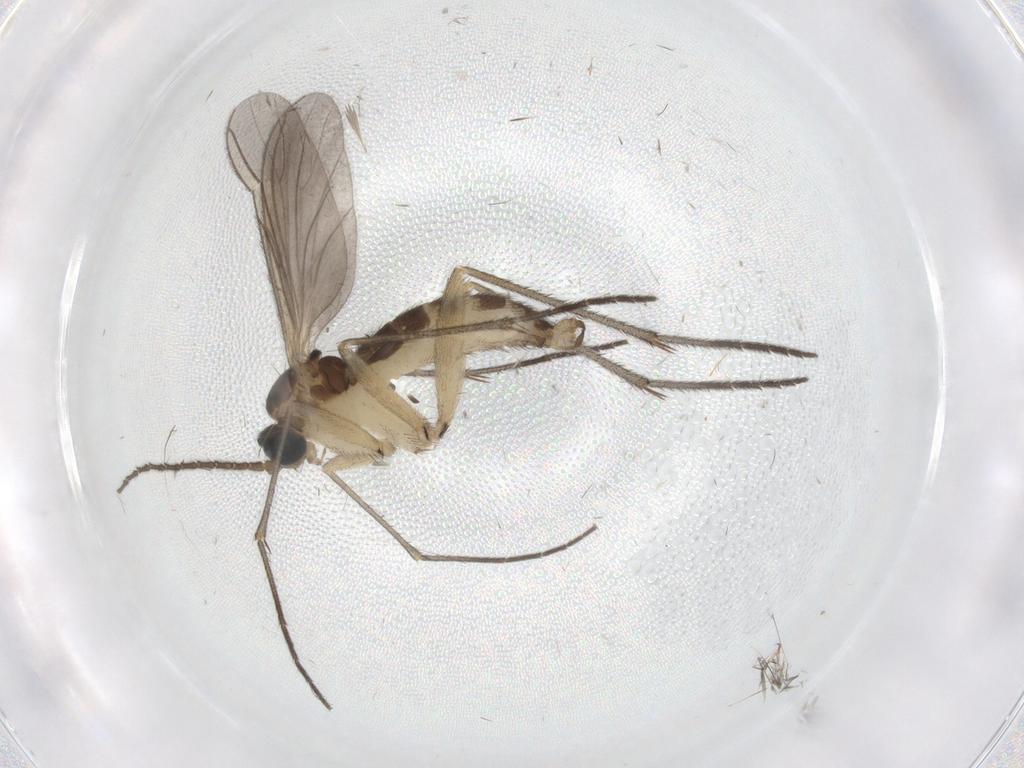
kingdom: Animalia
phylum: Arthropoda
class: Insecta
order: Diptera
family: Sciaridae
